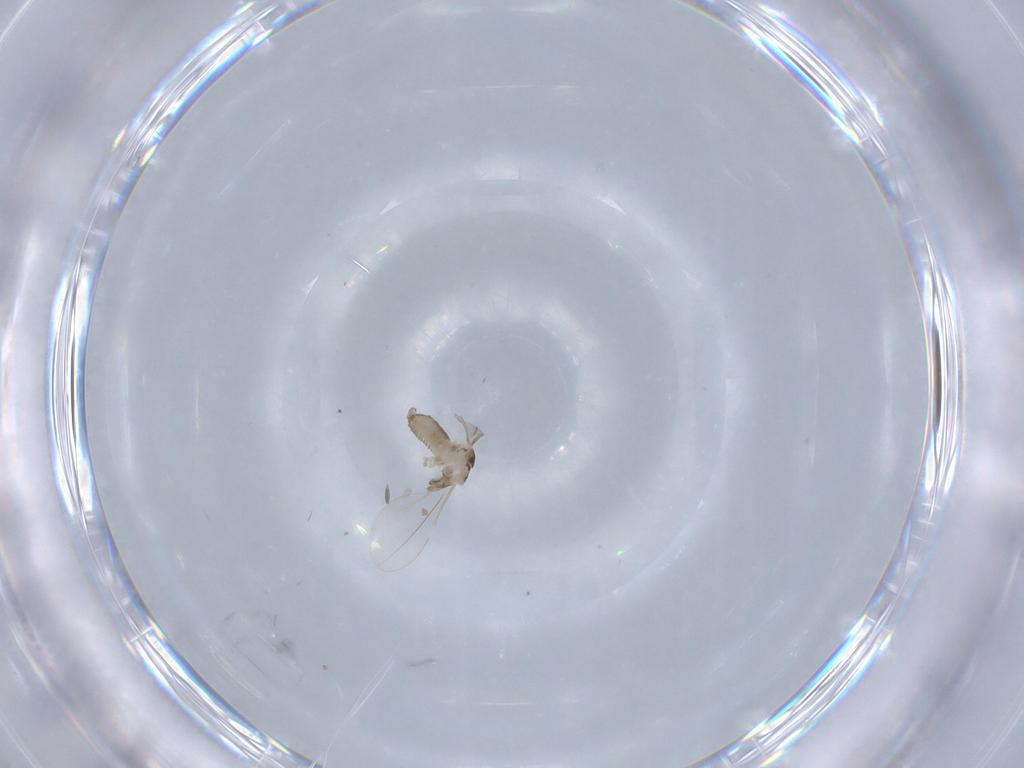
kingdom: Animalia
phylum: Arthropoda
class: Insecta
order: Diptera
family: Cecidomyiidae
